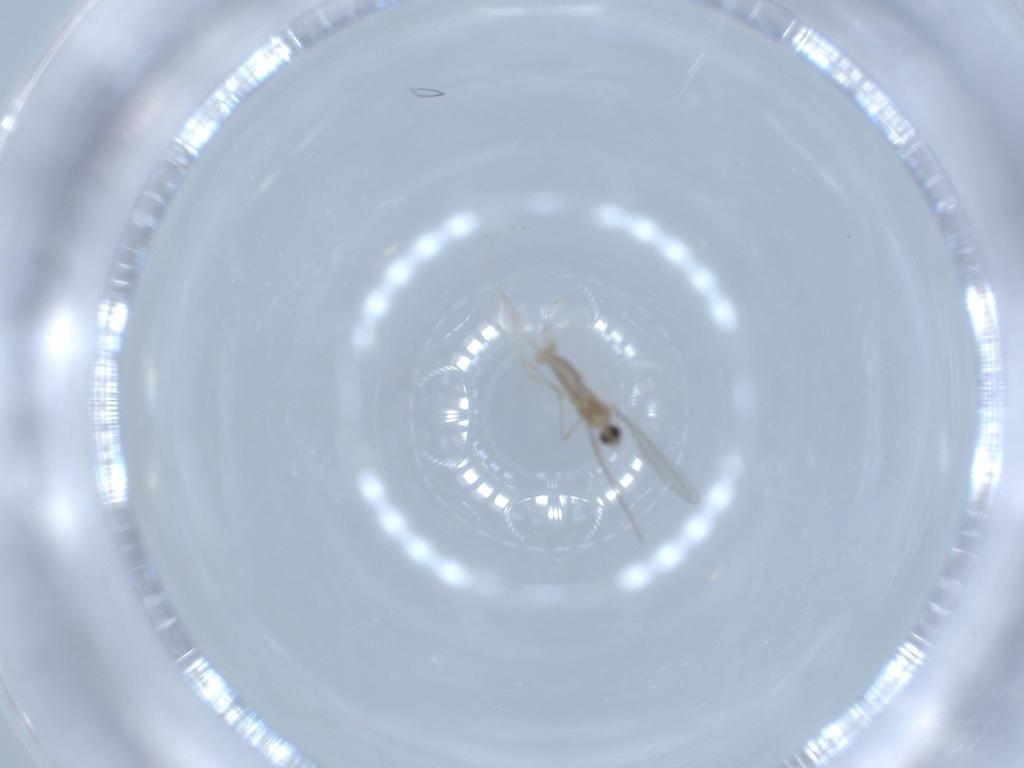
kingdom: Animalia
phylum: Arthropoda
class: Insecta
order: Diptera
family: Cecidomyiidae
